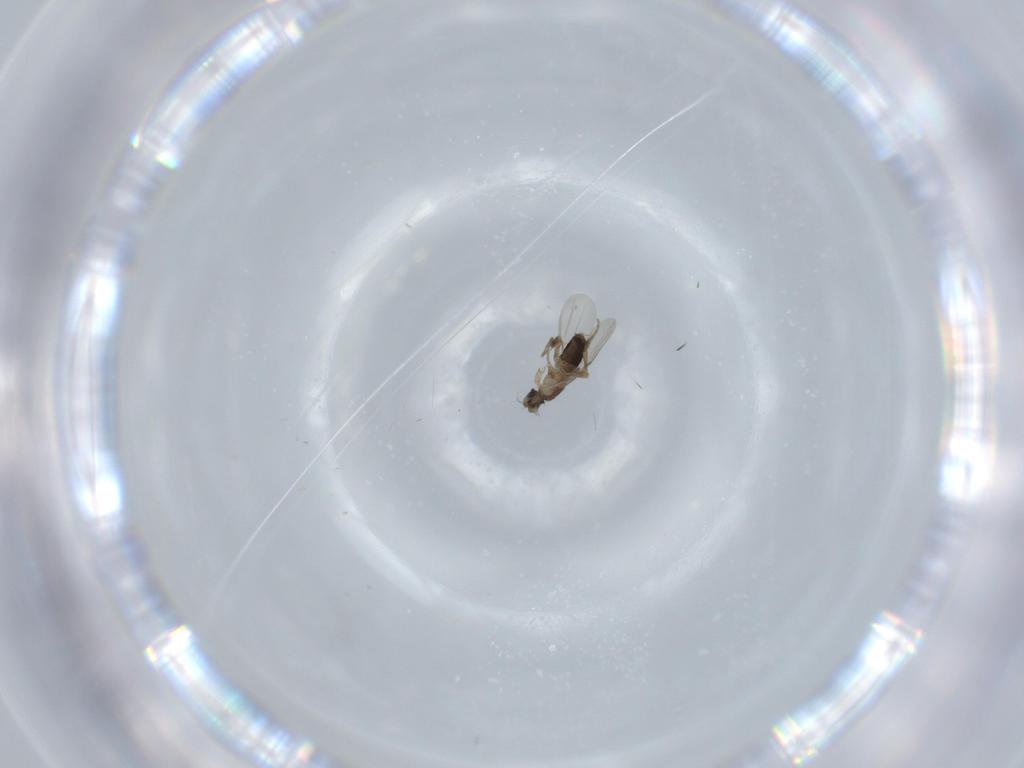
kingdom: Animalia
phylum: Arthropoda
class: Insecta
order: Diptera
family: Phoridae
